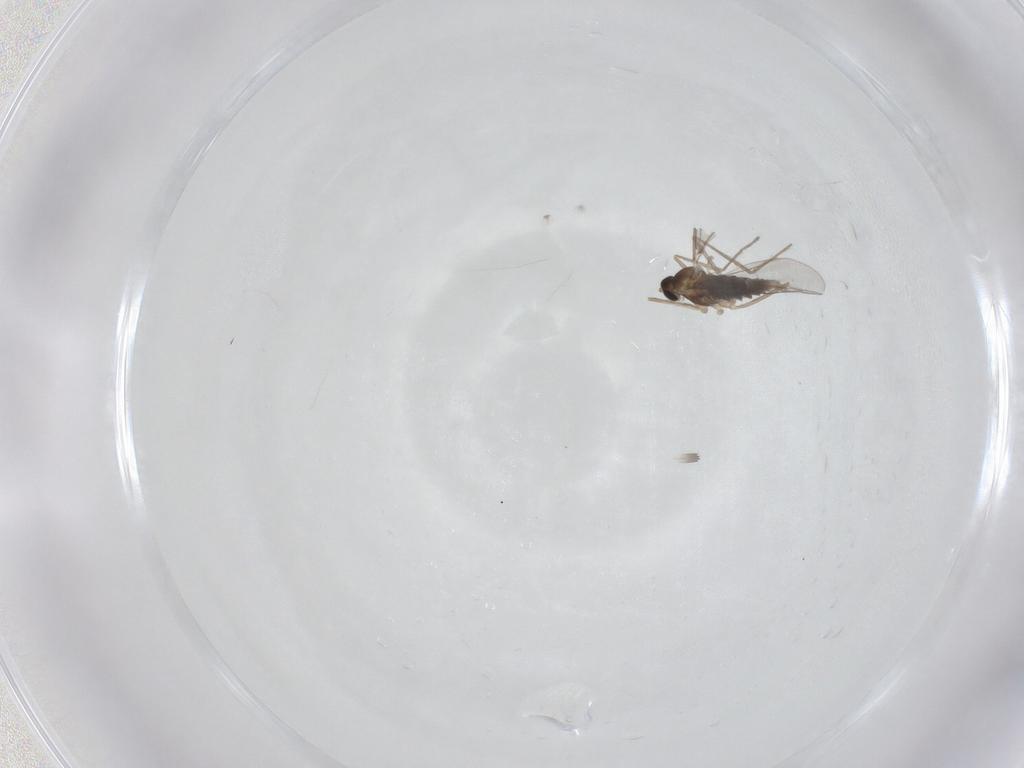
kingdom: Animalia
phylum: Arthropoda
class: Insecta
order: Diptera
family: Cecidomyiidae
